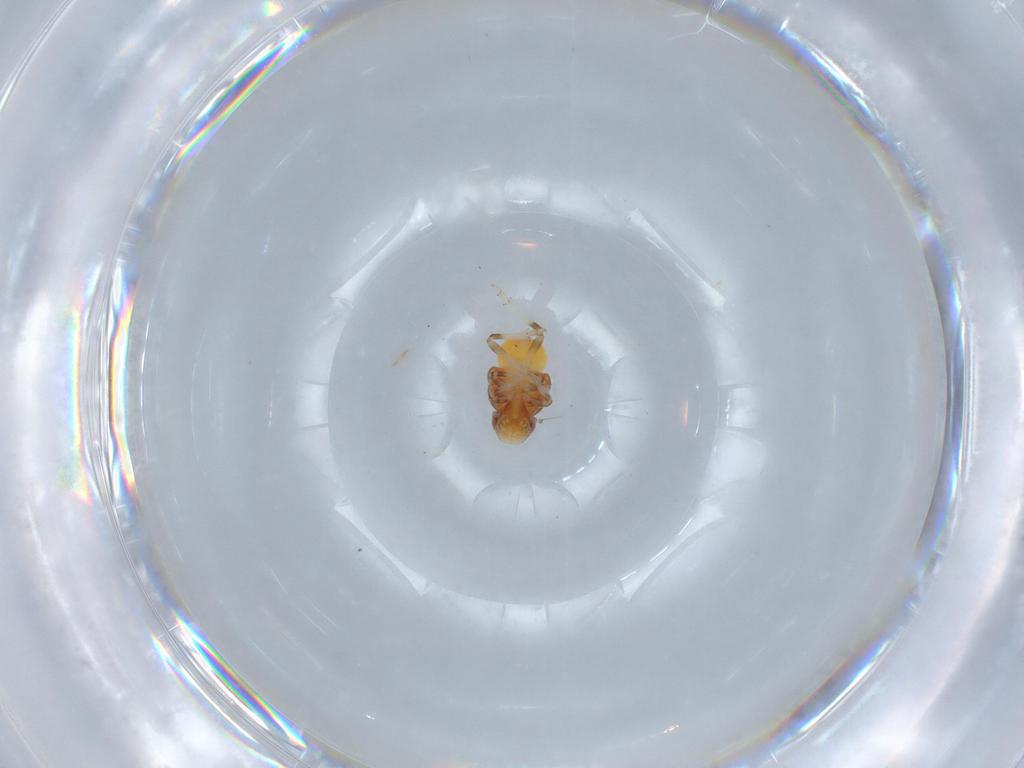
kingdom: Animalia
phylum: Arthropoda
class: Insecta
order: Hemiptera
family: Issidae
